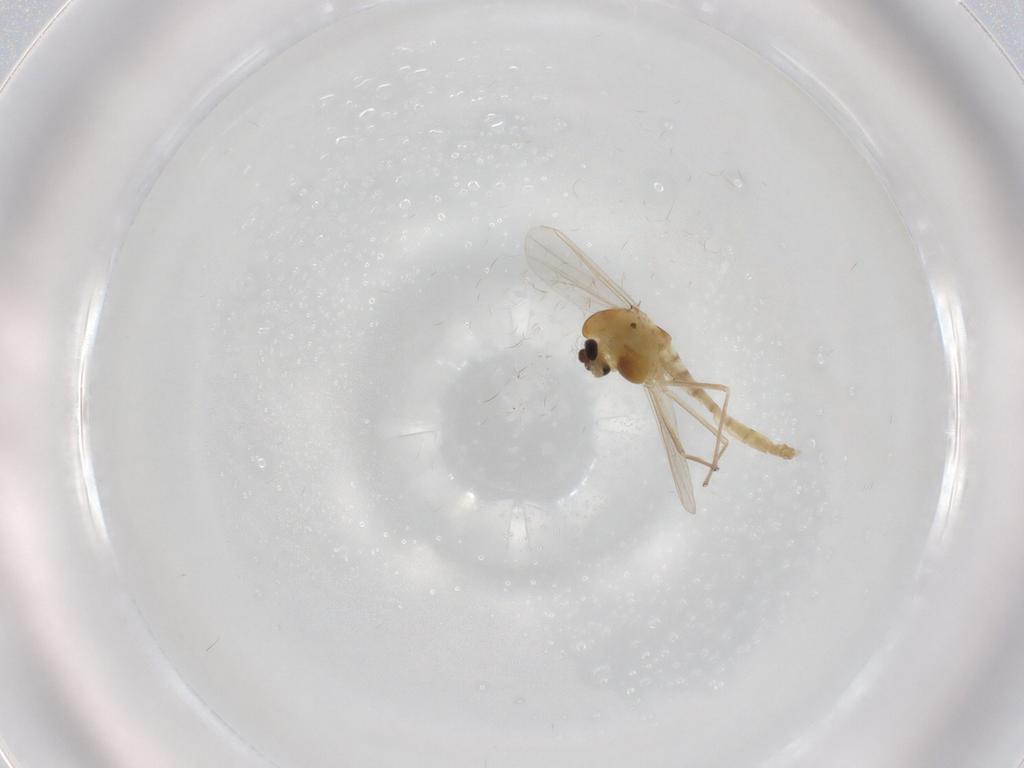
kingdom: Animalia
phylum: Arthropoda
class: Insecta
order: Diptera
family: Chironomidae
